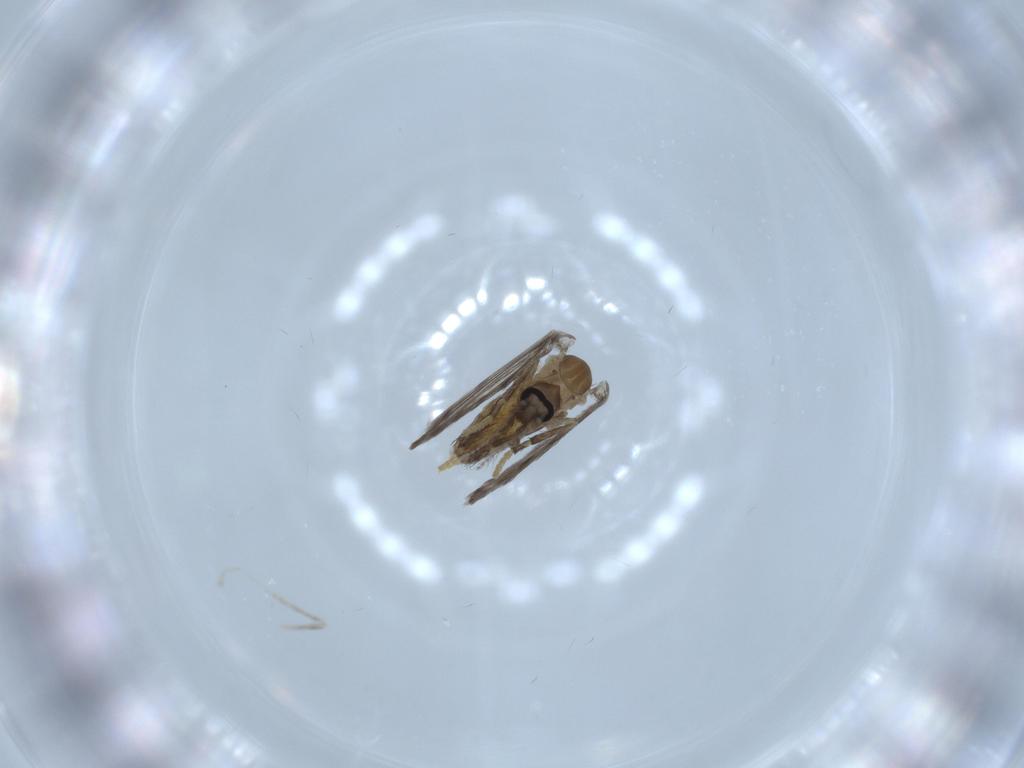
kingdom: Animalia
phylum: Arthropoda
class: Insecta
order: Diptera
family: Psychodidae
